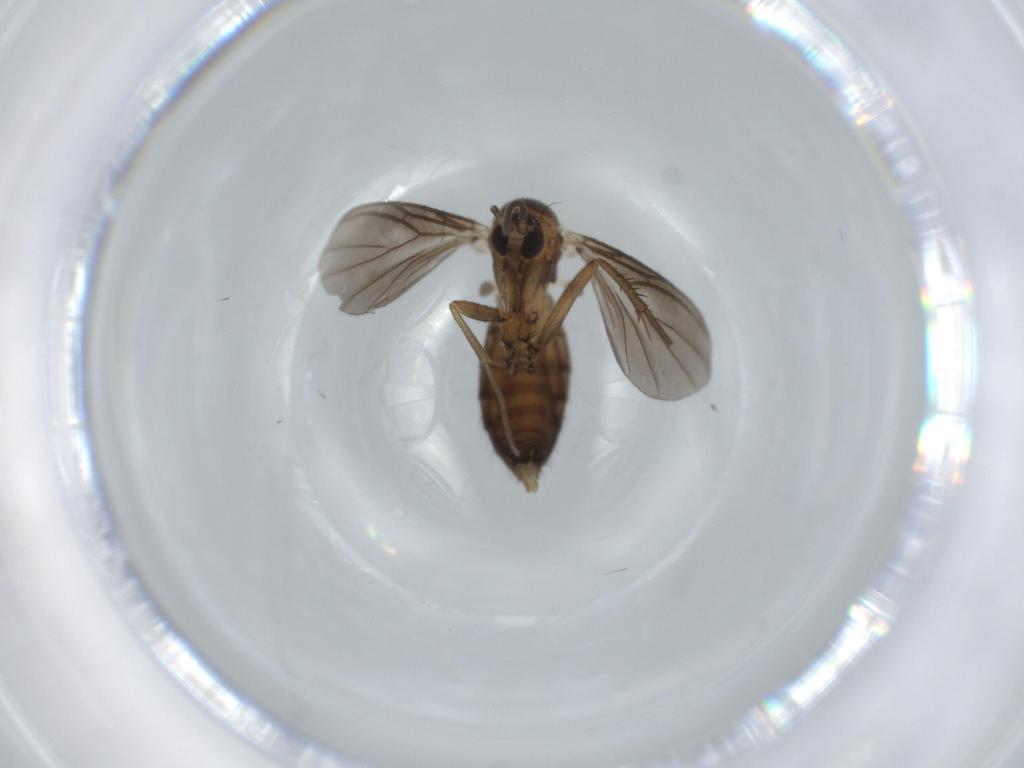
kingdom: Animalia
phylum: Arthropoda
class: Insecta
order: Diptera
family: Mycetophilidae
